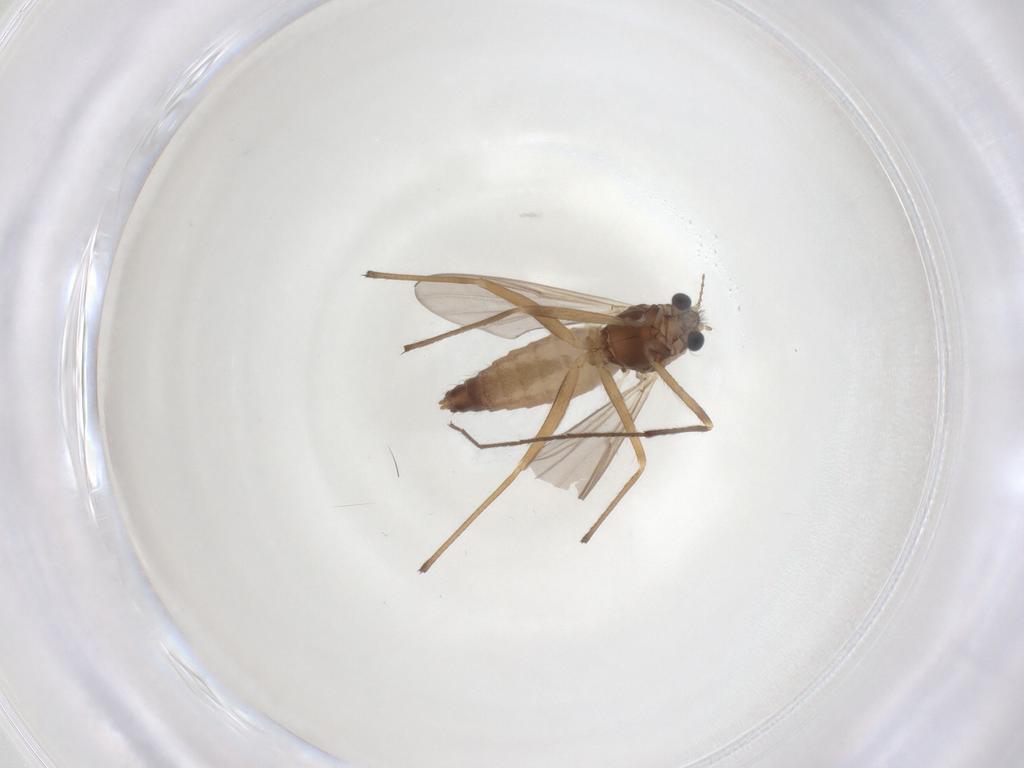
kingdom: Animalia
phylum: Arthropoda
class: Insecta
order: Diptera
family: Chironomidae
